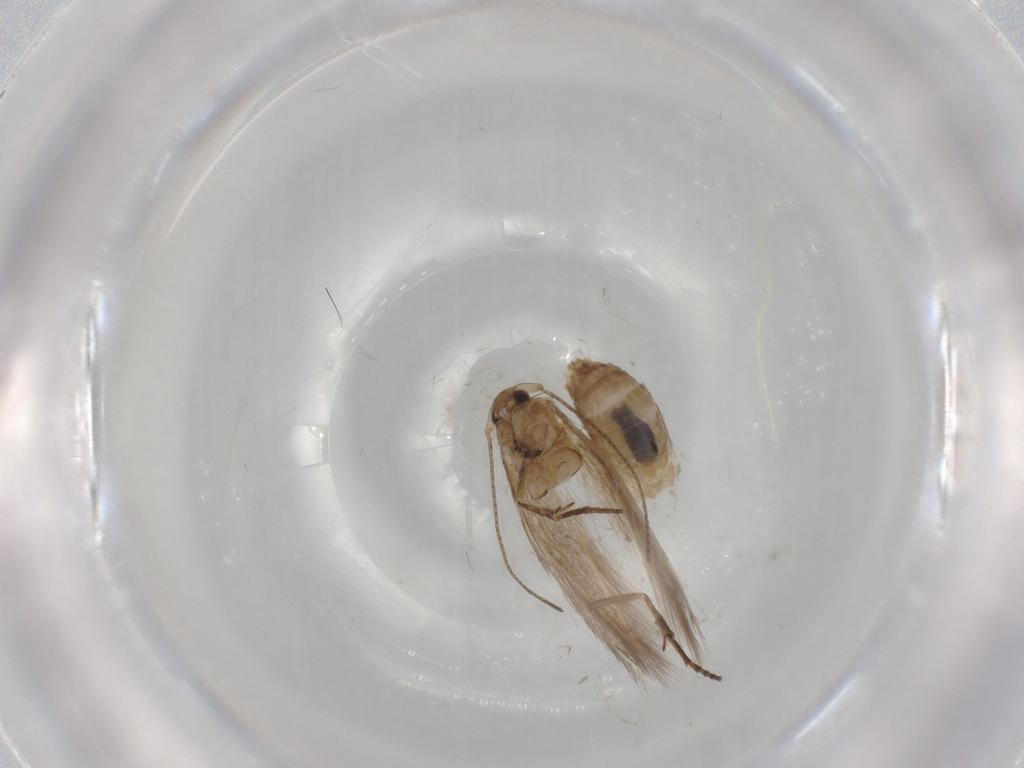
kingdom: Animalia
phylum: Arthropoda
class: Insecta
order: Lepidoptera
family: Bucculatricidae
